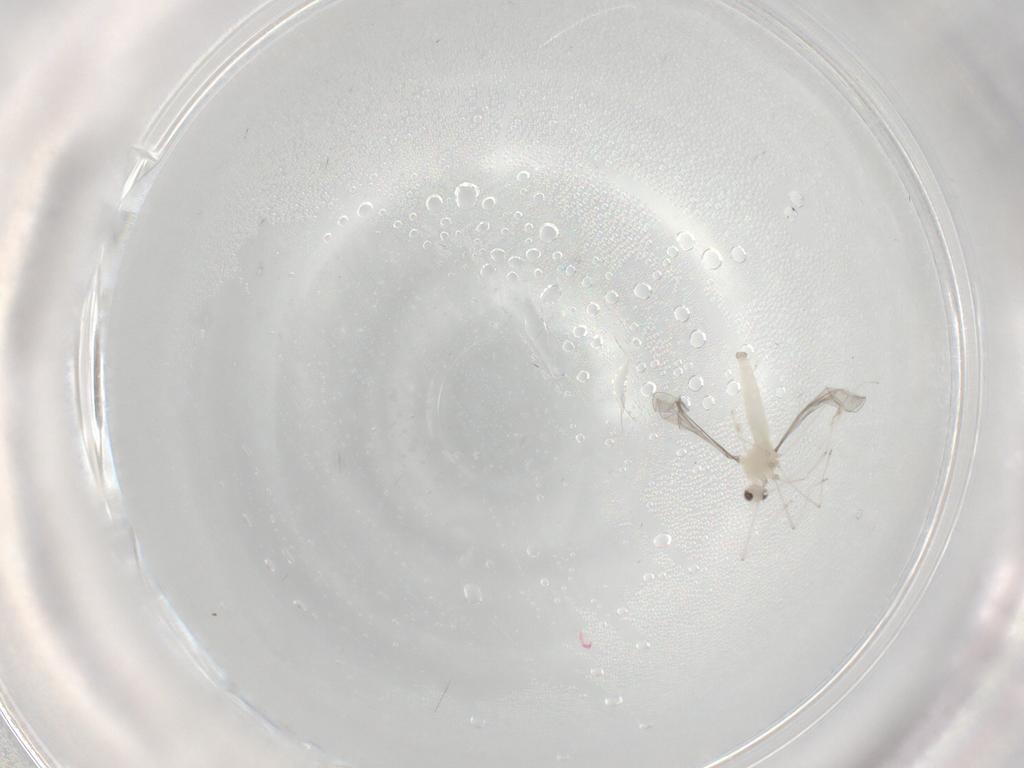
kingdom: Animalia
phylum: Arthropoda
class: Insecta
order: Diptera
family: Cecidomyiidae
